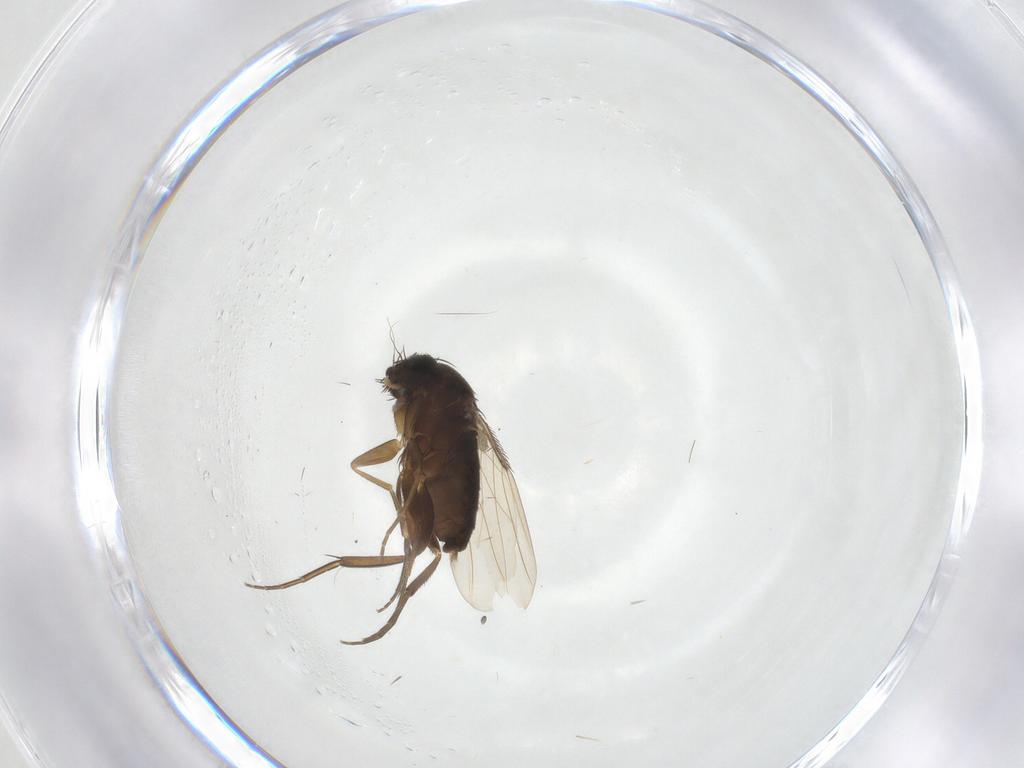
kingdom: Animalia
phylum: Arthropoda
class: Insecta
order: Diptera
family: Phoridae
